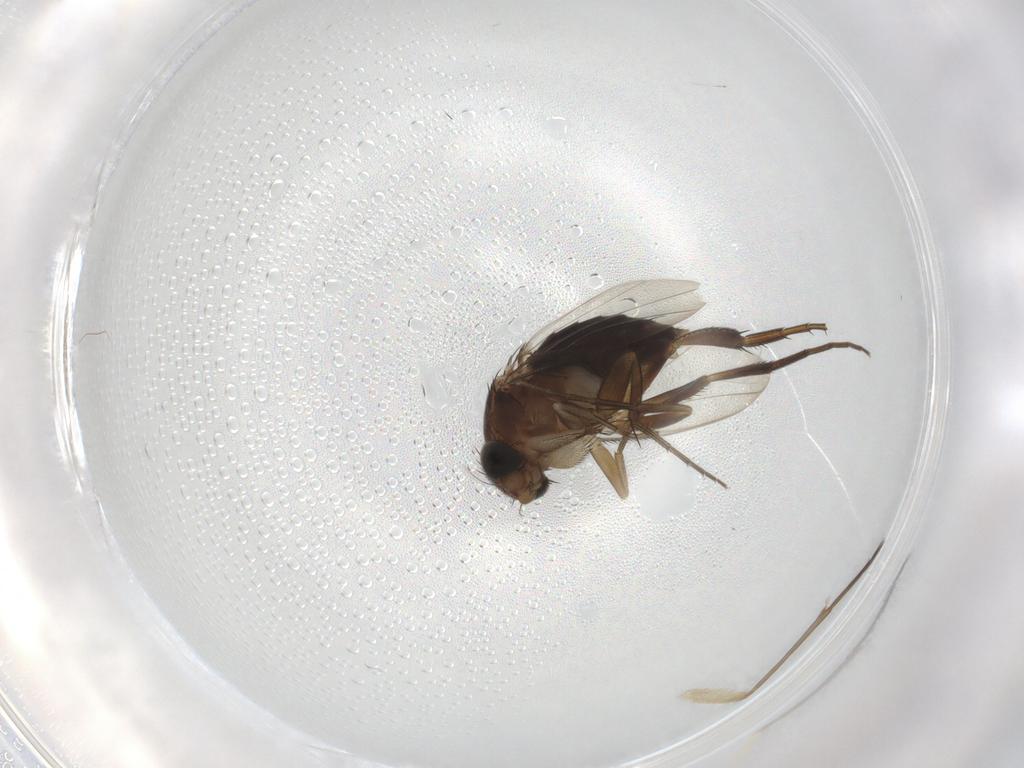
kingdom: Animalia
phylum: Arthropoda
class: Insecta
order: Diptera
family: Phoridae
